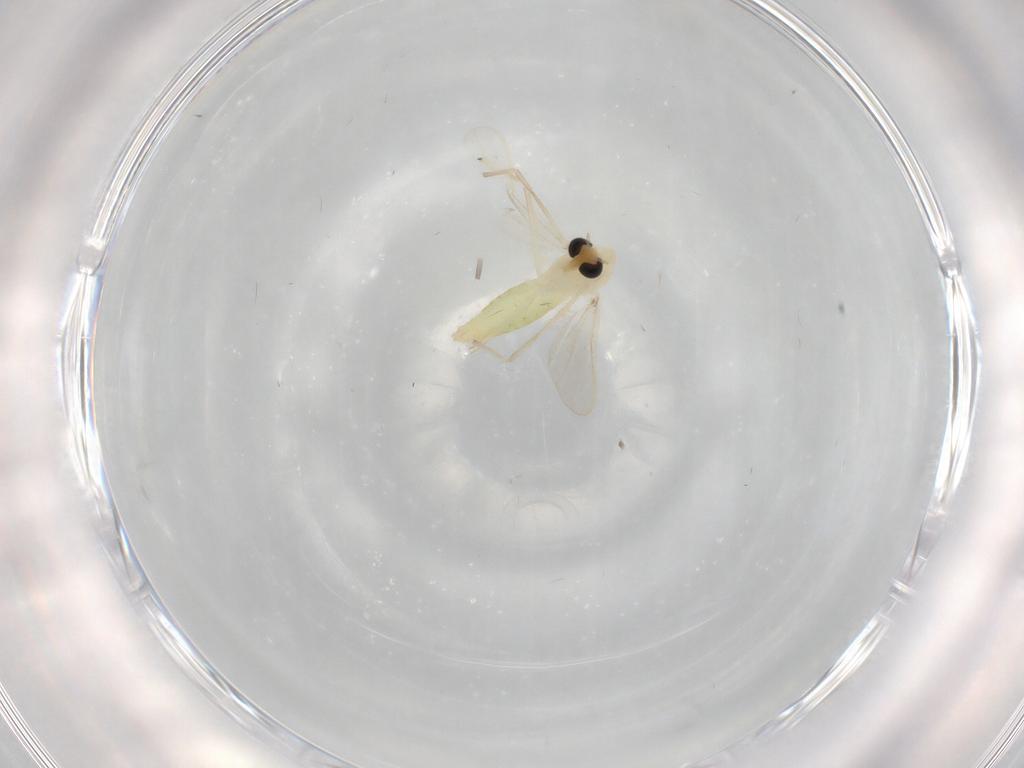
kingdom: Animalia
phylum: Arthropoda
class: Insecta
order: Diptera
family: Chironomidae
